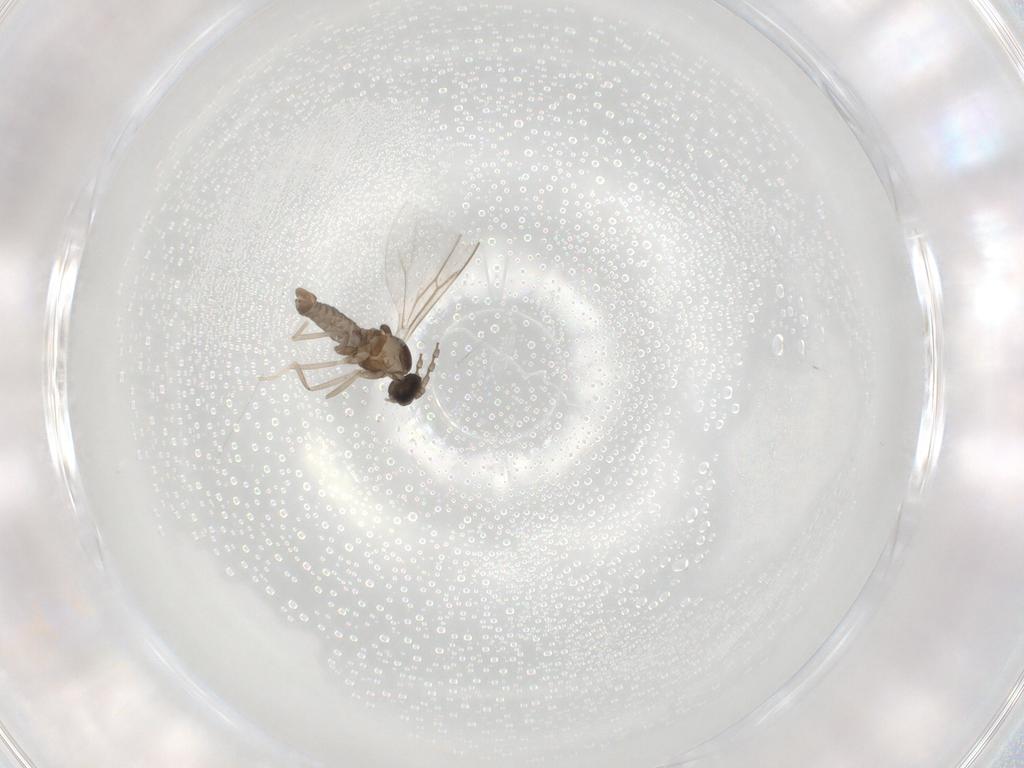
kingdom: Animalia
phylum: Arthropoda
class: Insecta
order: Diptera
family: Cecidomyiidae
